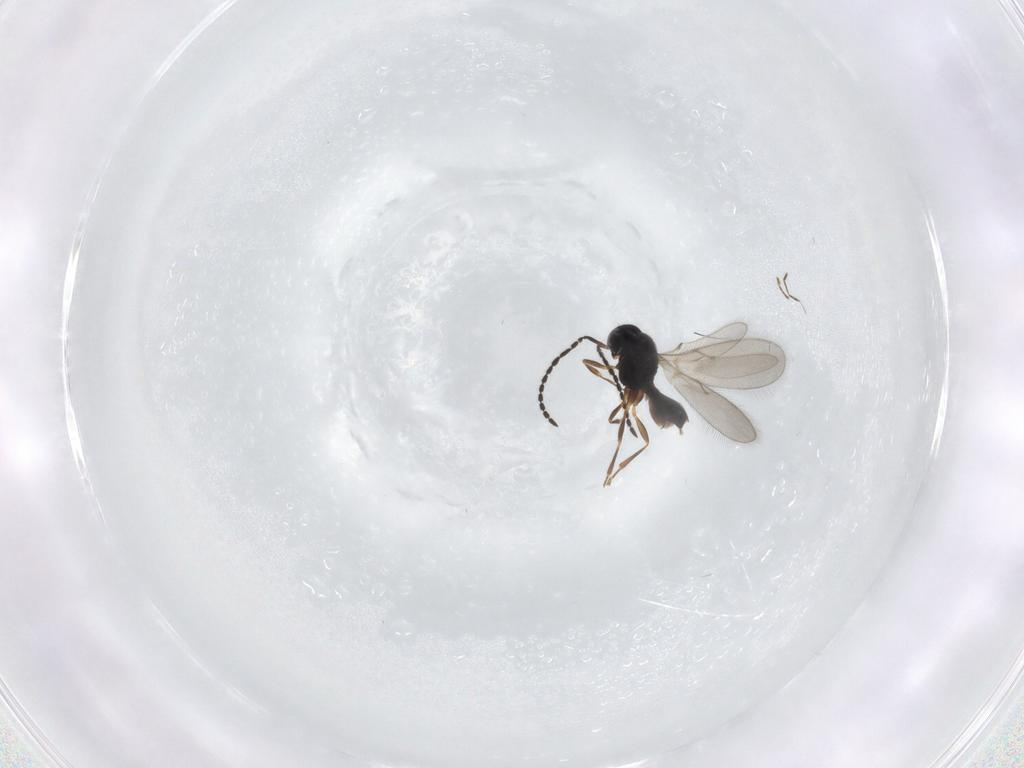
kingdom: Animalia
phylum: Arthropoda
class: Insecta
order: Hymenoptera
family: Scelionidae
